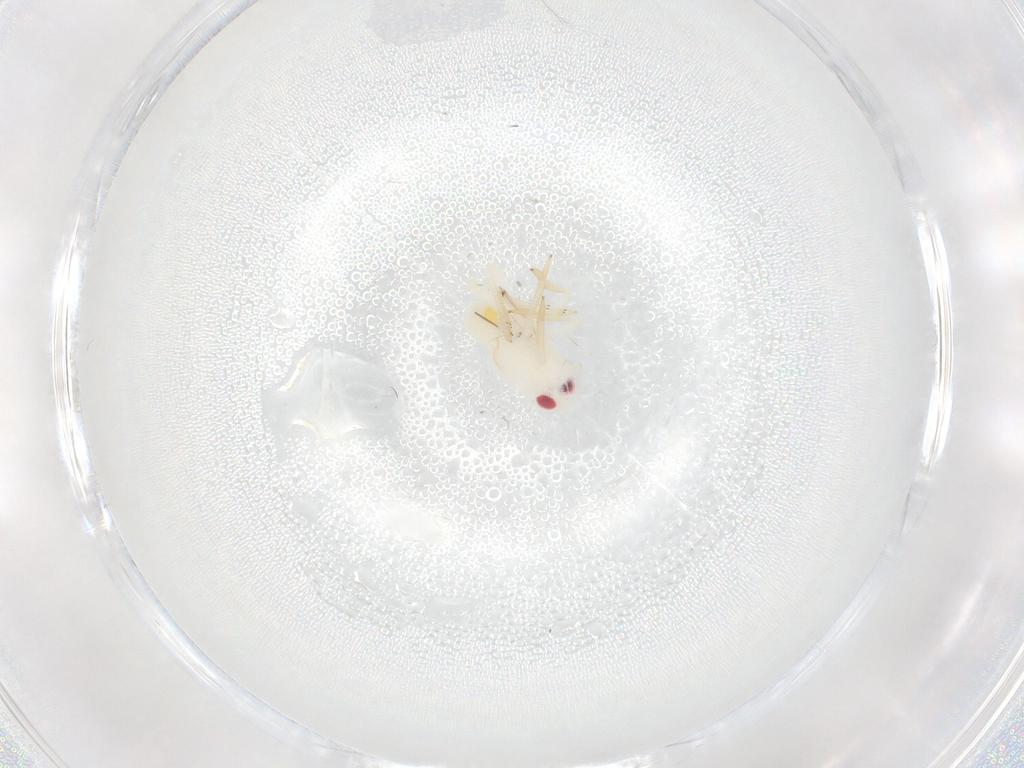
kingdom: Animalia
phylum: Arthropoda
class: Insecta
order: Hemiptera
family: Tropiduchidae
